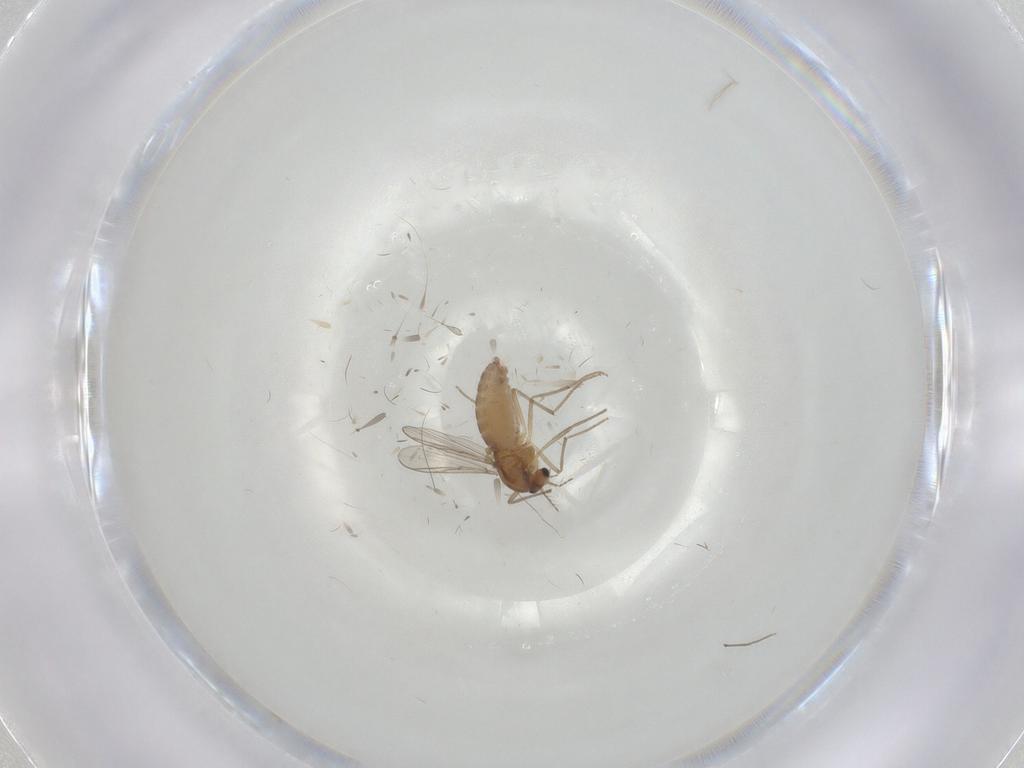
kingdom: Animalia
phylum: Arthropoda
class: Insecta
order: Diptera
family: Chironomidae
